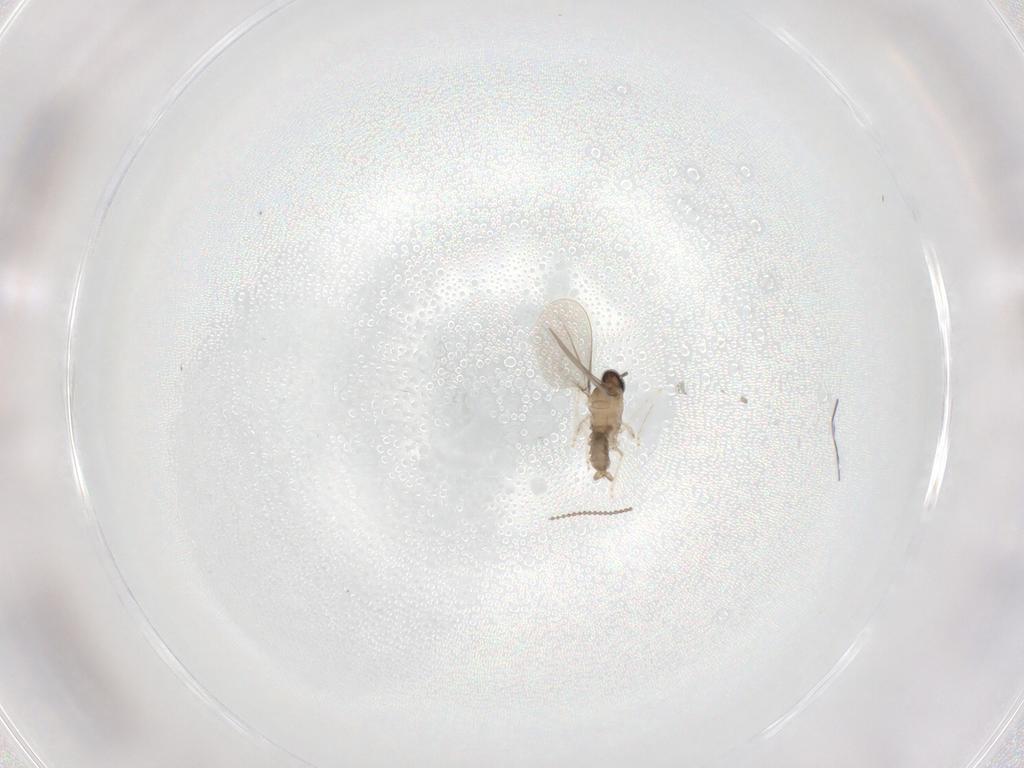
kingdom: Animalia
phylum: Arthropoda
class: Insecta
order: Diptera
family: Cecidomyiidae
